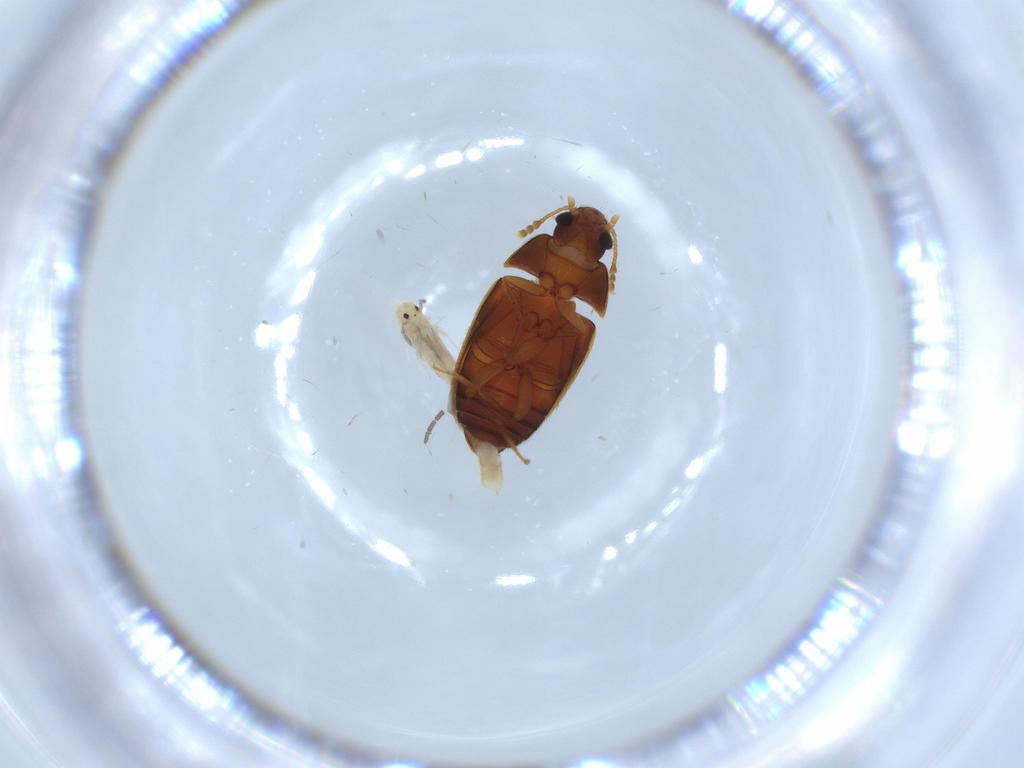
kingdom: Animalia
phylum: Arthropoda
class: Insecta
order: Coleoptera
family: Mycetophagidae
